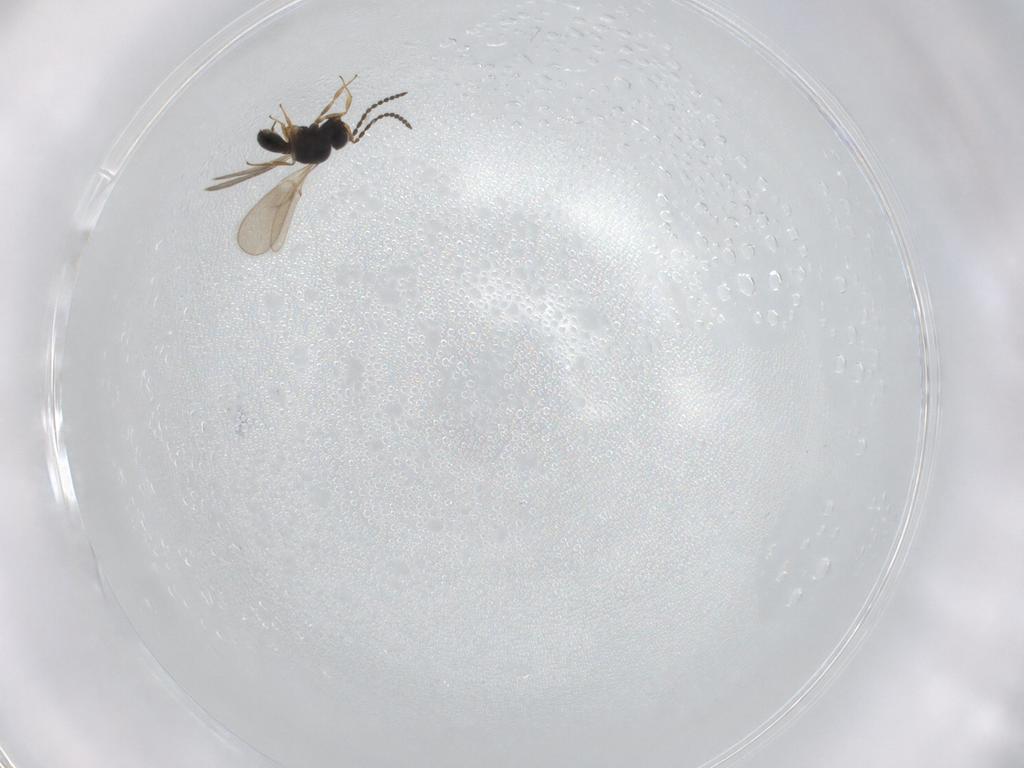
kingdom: Animalia
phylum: Arthropoda
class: Insecta
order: Hymenoptera
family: Scelionidae
